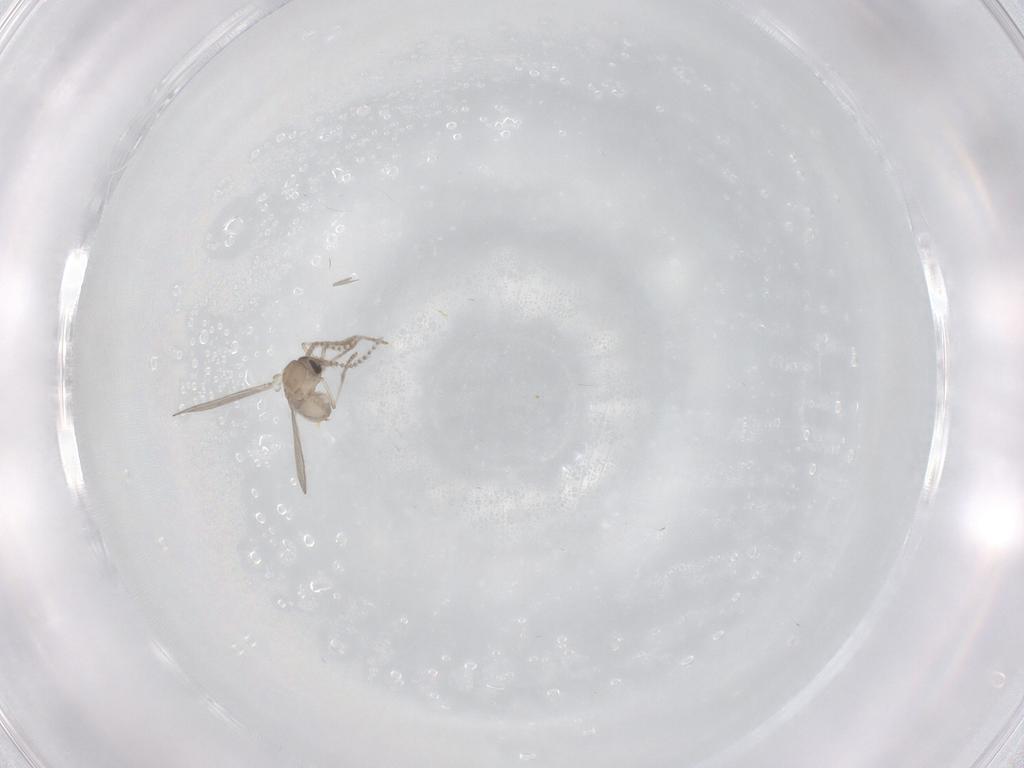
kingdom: Animalia
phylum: Arthropoda
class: Insecta
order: Diptera
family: Psychodidae
